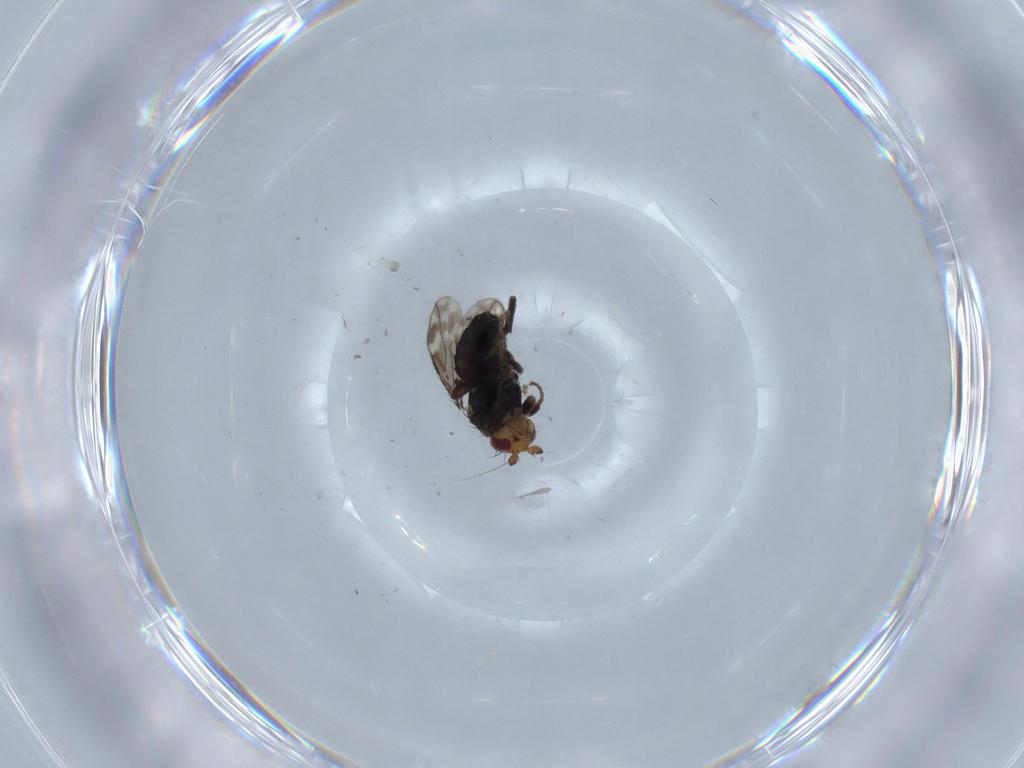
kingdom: Animalia
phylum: Arthropoda
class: Insecta
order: Diptera
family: Sphaeroceridae
